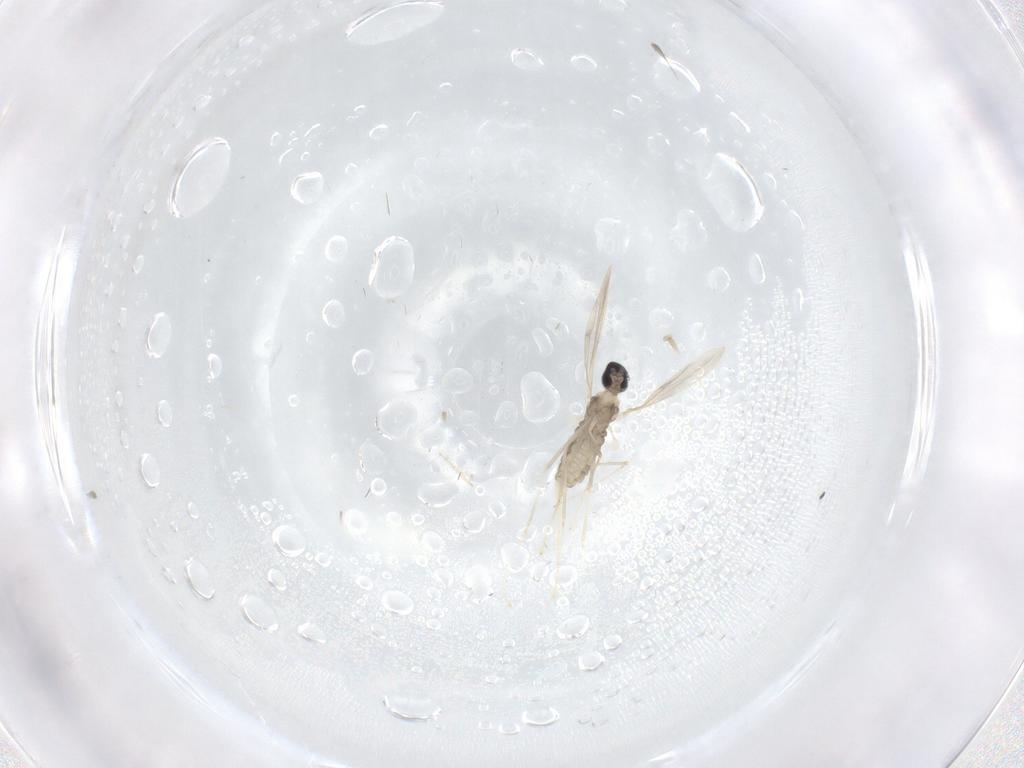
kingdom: Animalia
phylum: Arthropoda
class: Insecta
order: Diptera
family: Cecidomyiidae
